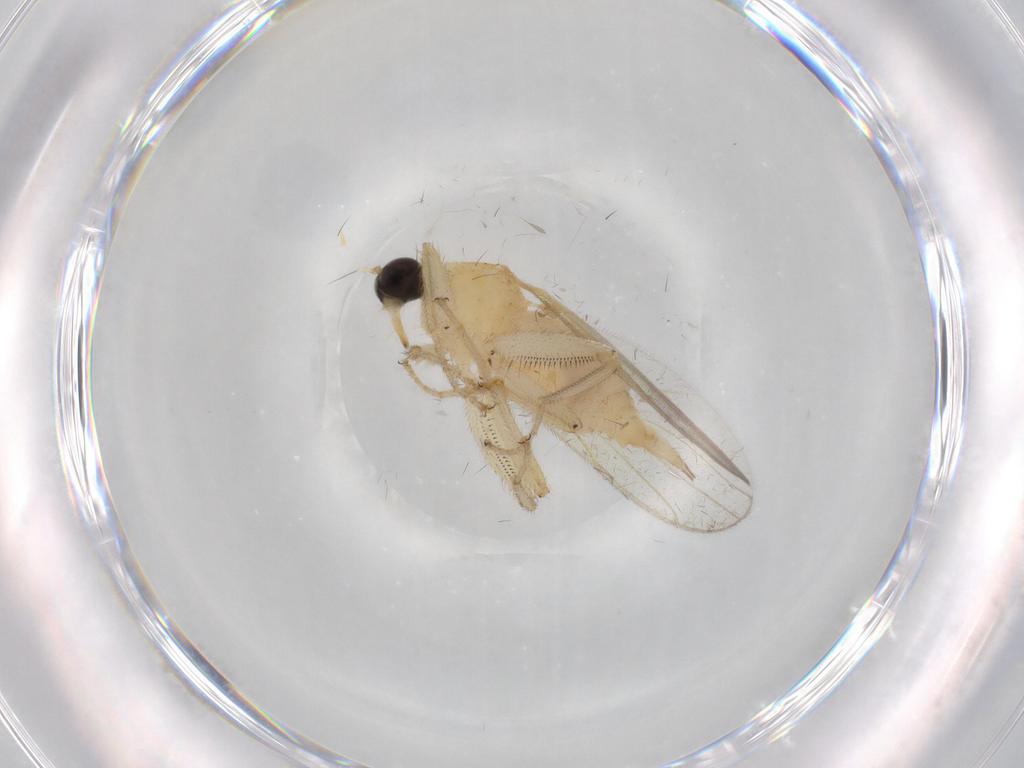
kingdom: Animalia
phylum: Arthropoda
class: Insecta
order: Diptera
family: Hybotidae
